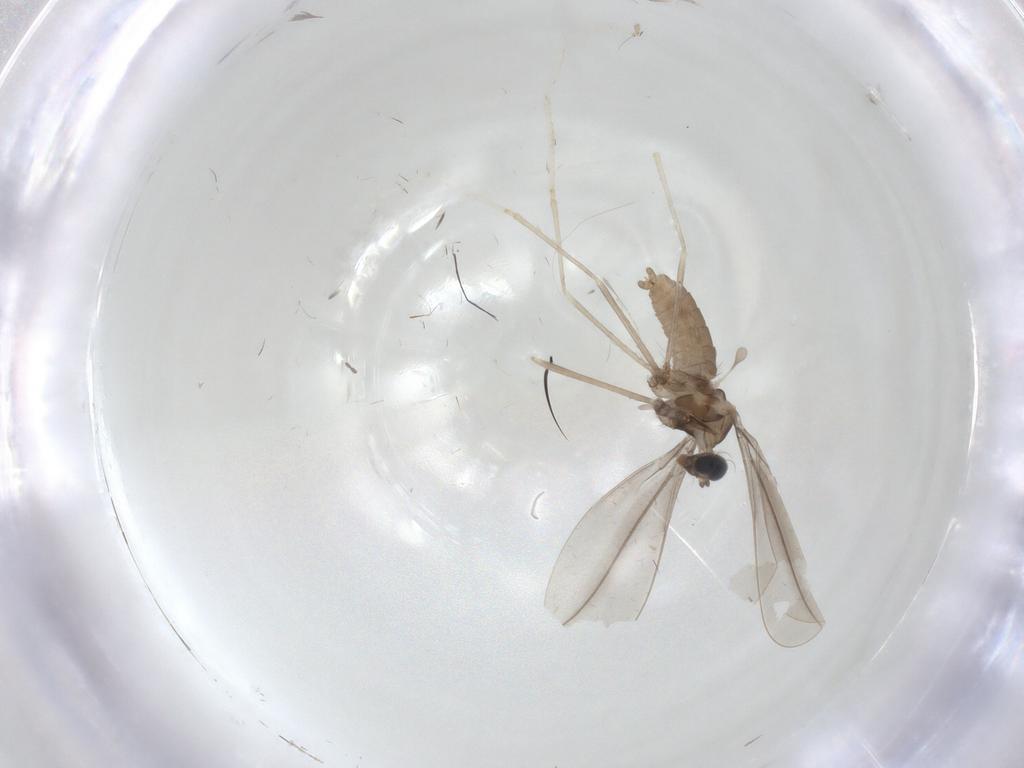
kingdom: Animalia
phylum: Arthropoda
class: Insecta
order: Diptera
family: Cecidomyiidae
